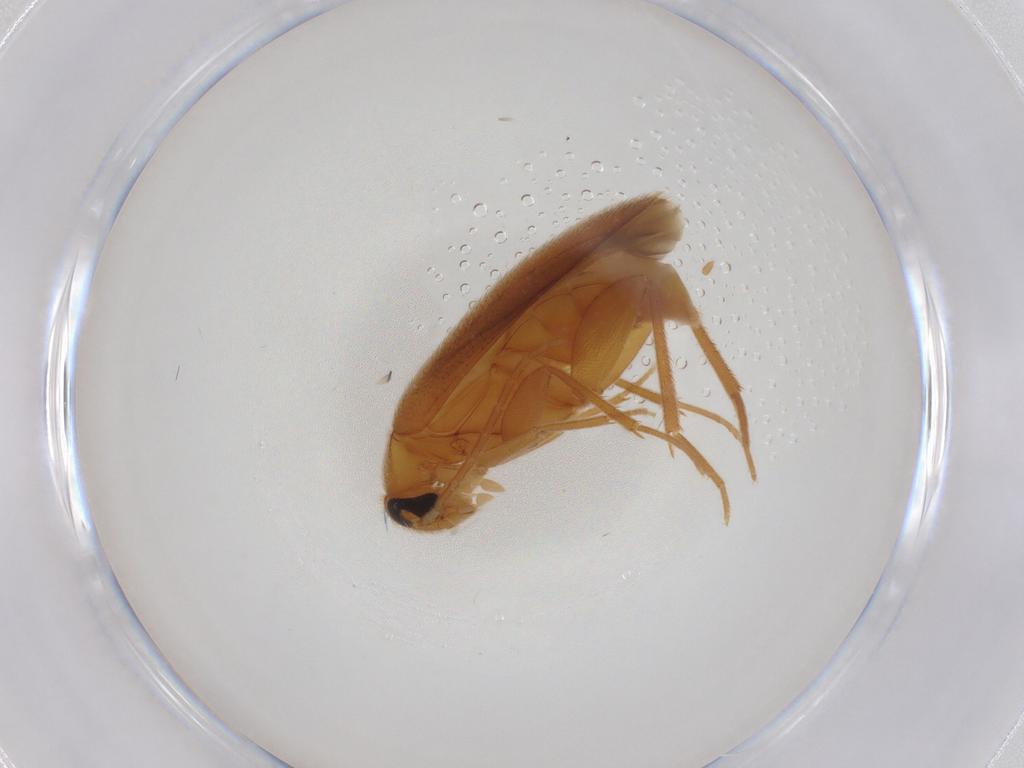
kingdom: Animalia
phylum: Arthropoda
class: Insecta
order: Coleoptera
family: Scraptiidae
